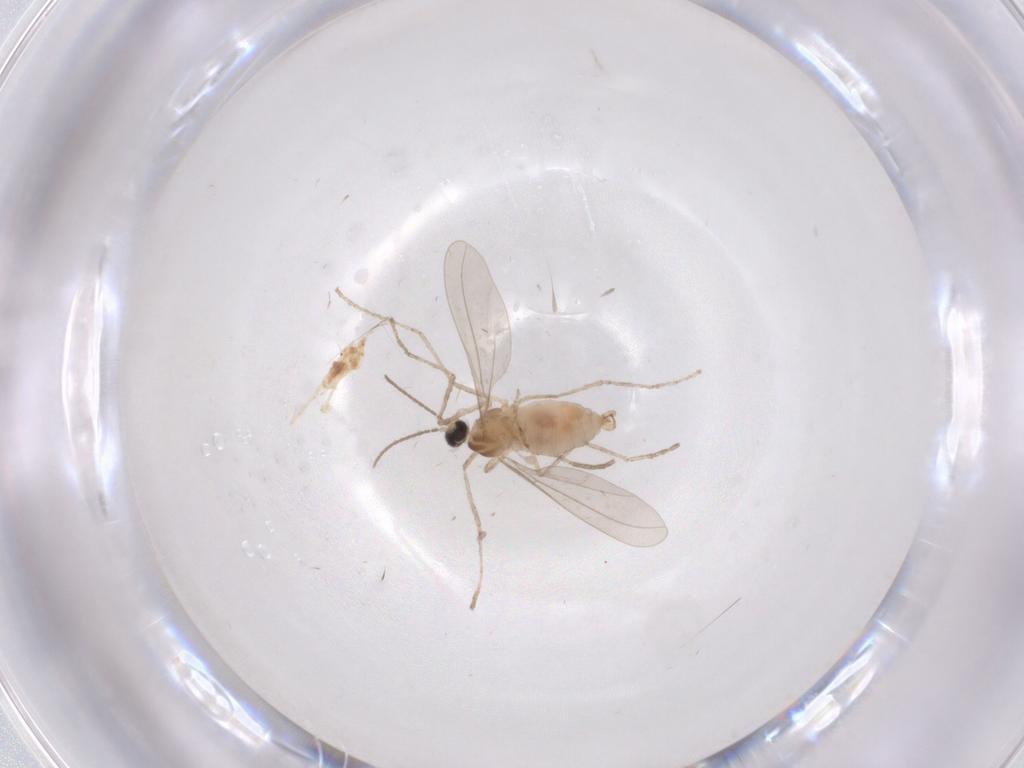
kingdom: Animalia
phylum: Arthropoda
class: Insecta
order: Diptera
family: Cecidomyiidae
